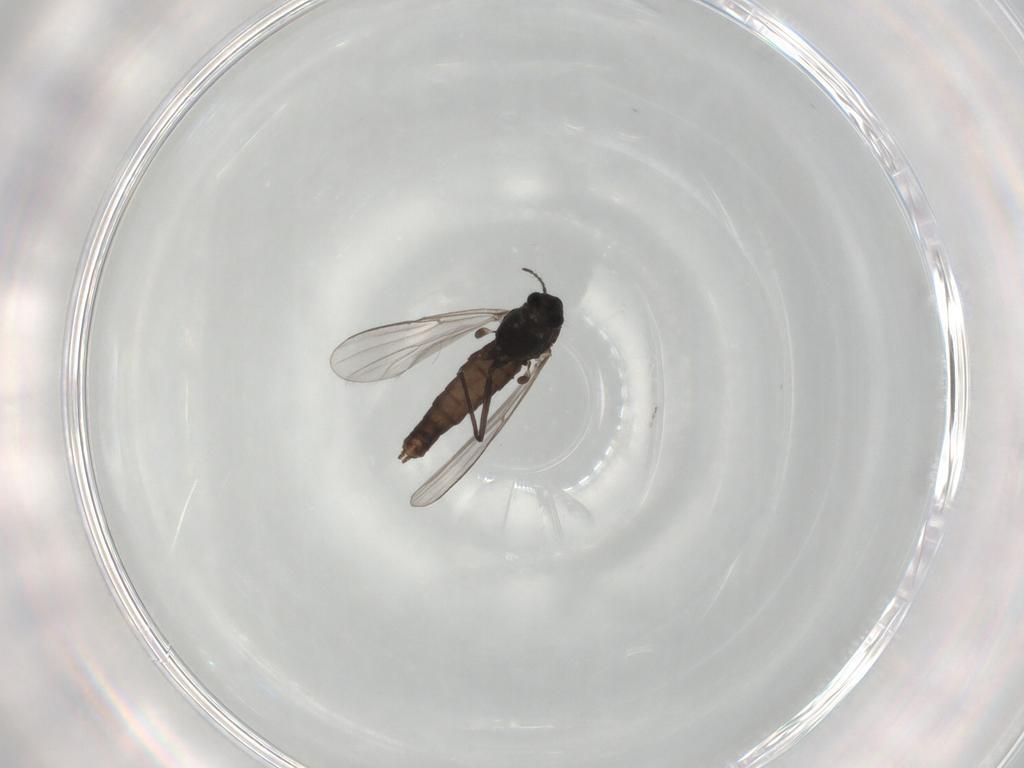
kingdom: Animalia
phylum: Arthropoda
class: Insecta
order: Diptera
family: Chironomidae
